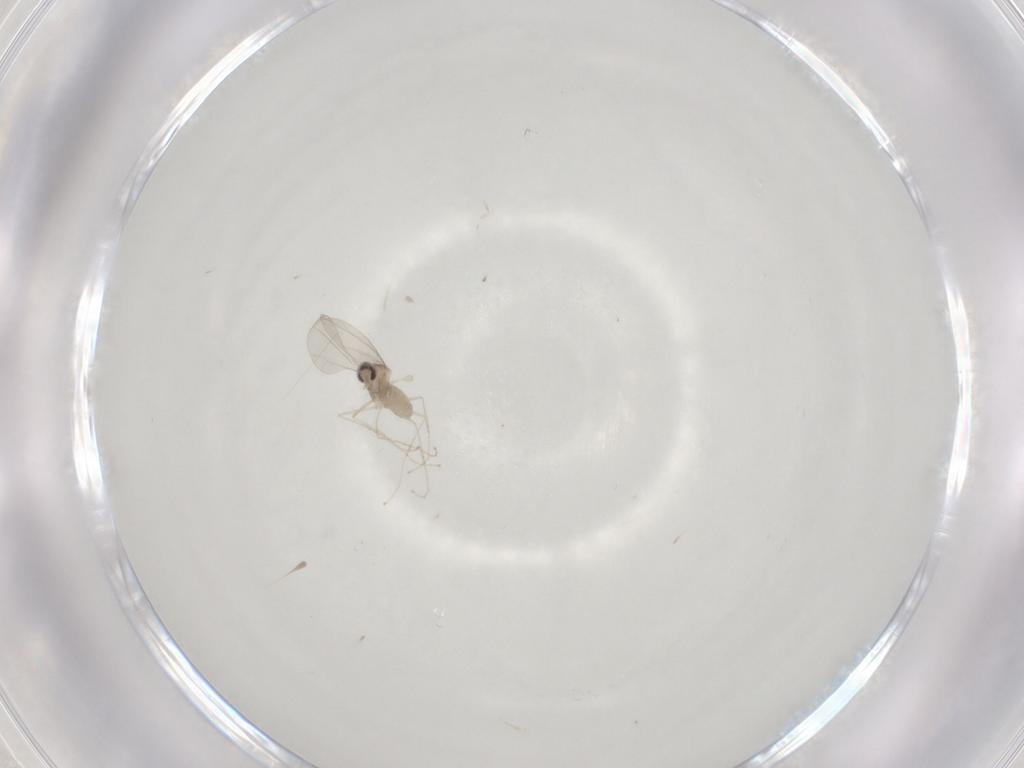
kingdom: Animalia
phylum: Arthropoda
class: Insecta
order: Diptera
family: Cecidomyiidae
